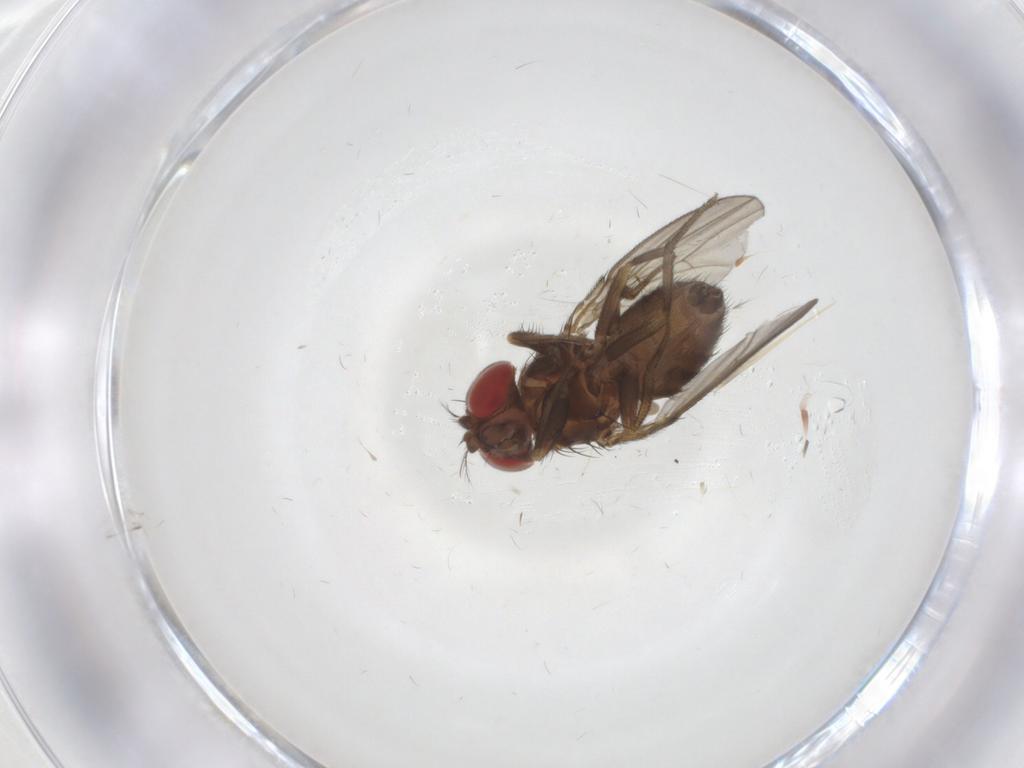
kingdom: Animalia
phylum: Arthropoda
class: Insecta
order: Diptera
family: Drosophilidae
